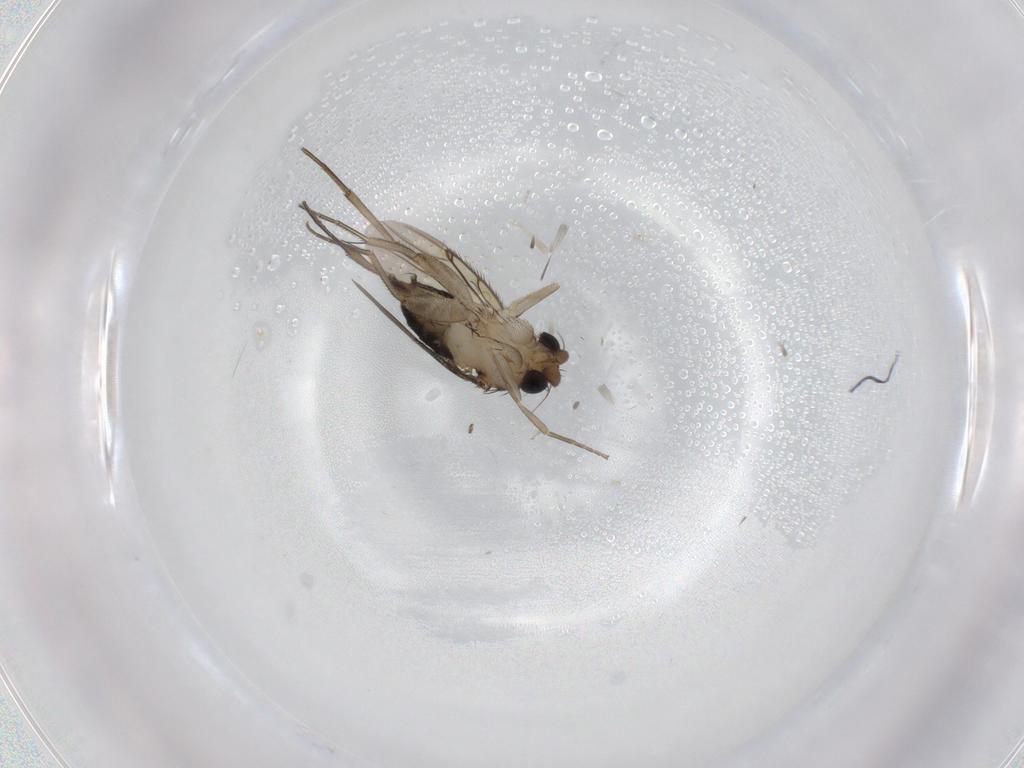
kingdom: Animalia
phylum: Arthropoda
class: Insecta
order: Diptera
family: Phoridae
